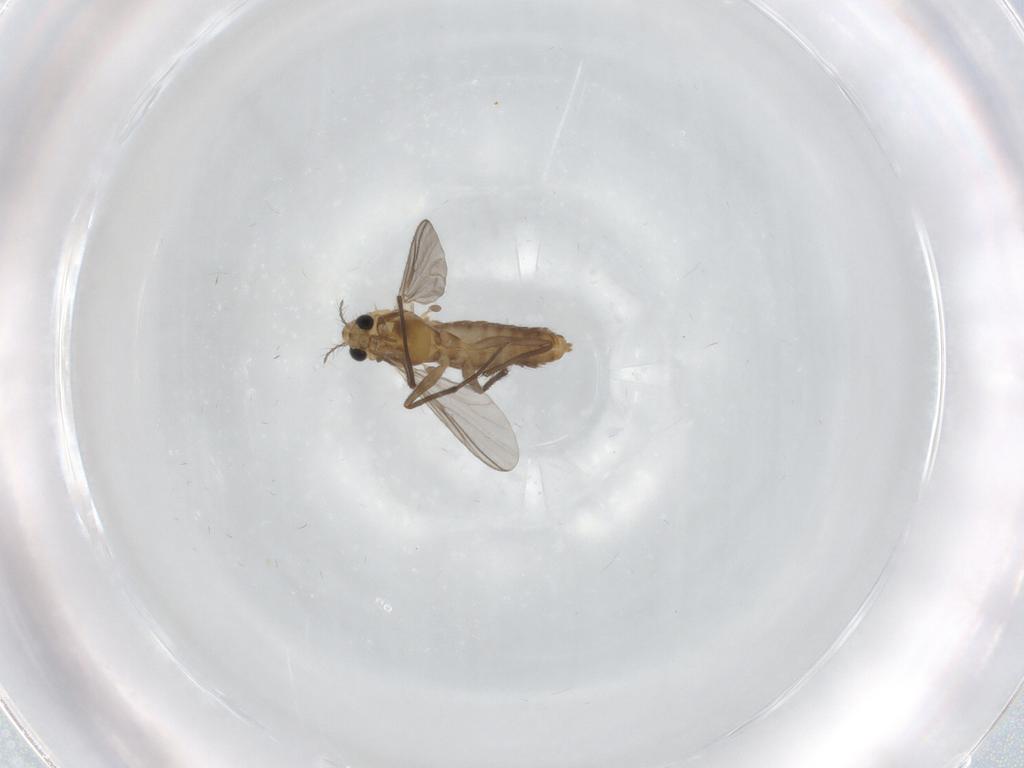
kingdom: Animalia
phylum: Arthropoda
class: Insecta
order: Diptera
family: Chironomidae
